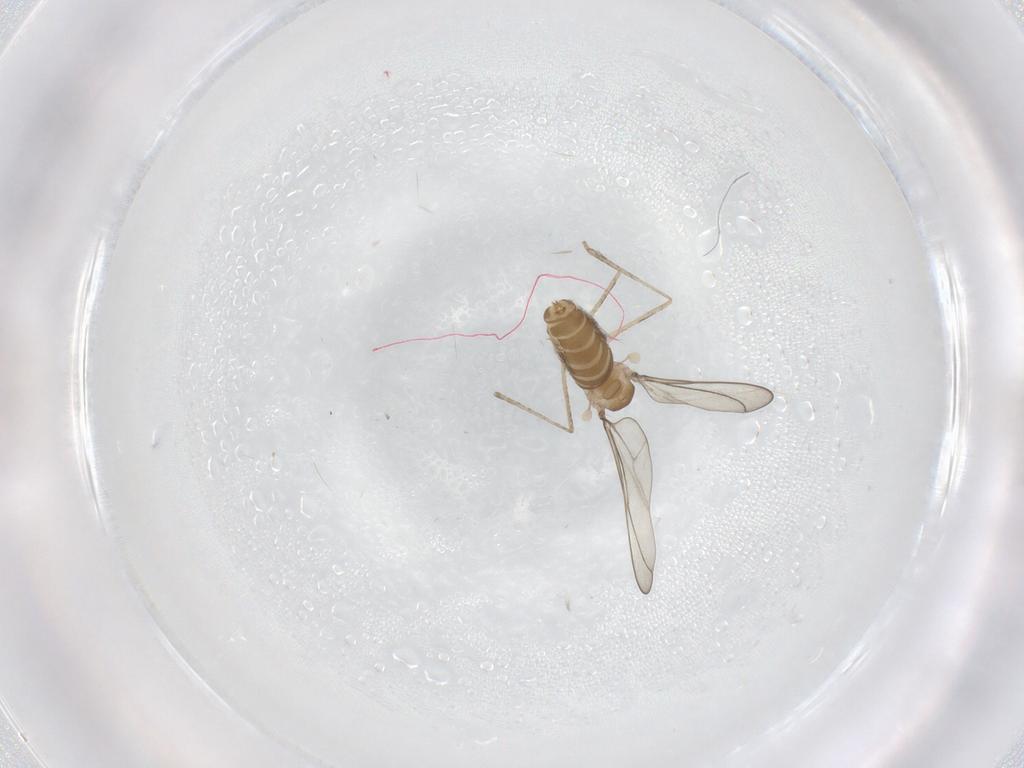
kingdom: Animalia
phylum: Arthropoda
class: Insecta
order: Diptera
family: Cecidomyiidae
